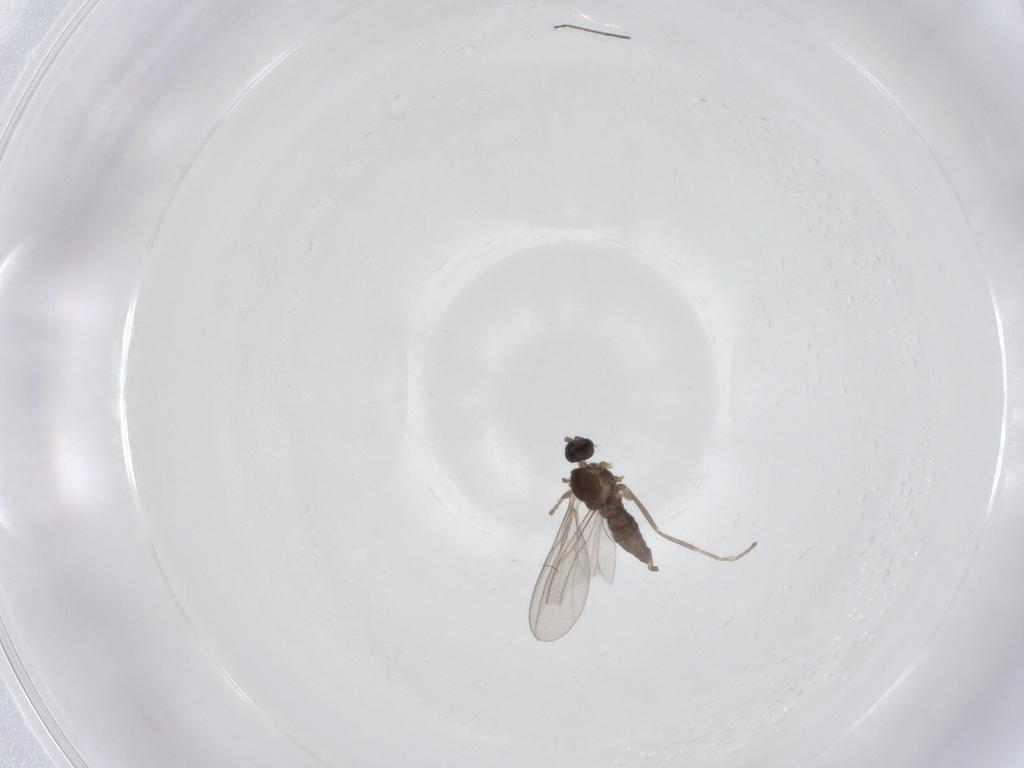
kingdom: Animalia
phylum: Arthropoda
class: Insecta
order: Diptera
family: Cecidomyiidae
